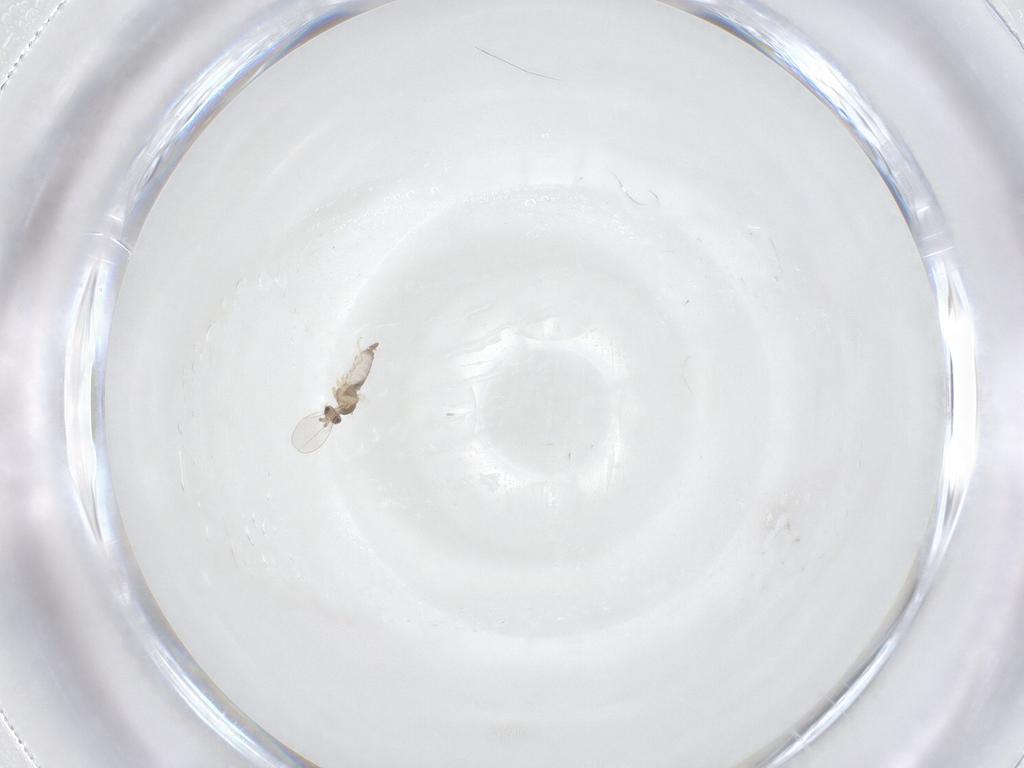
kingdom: Animalia
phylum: Arthropoda
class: Insecta
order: Diptera
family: Cecidomyiidae
